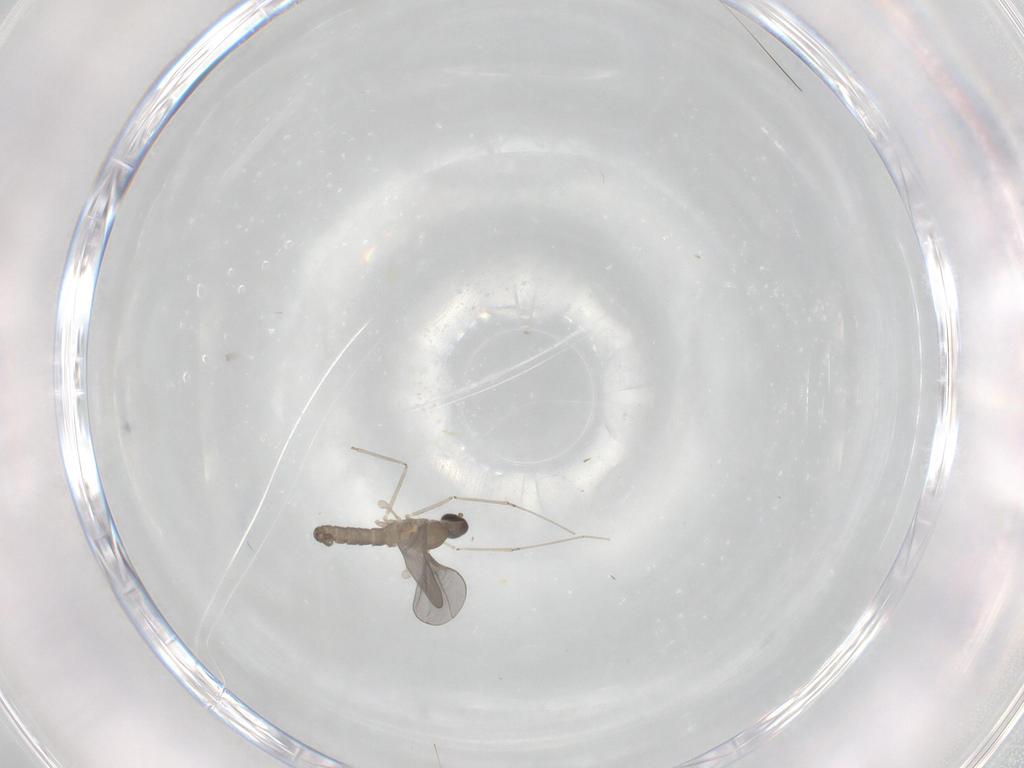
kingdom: Animalia
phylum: Arthropoda
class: Insecta
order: Diptera
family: Cecidomyiidae
